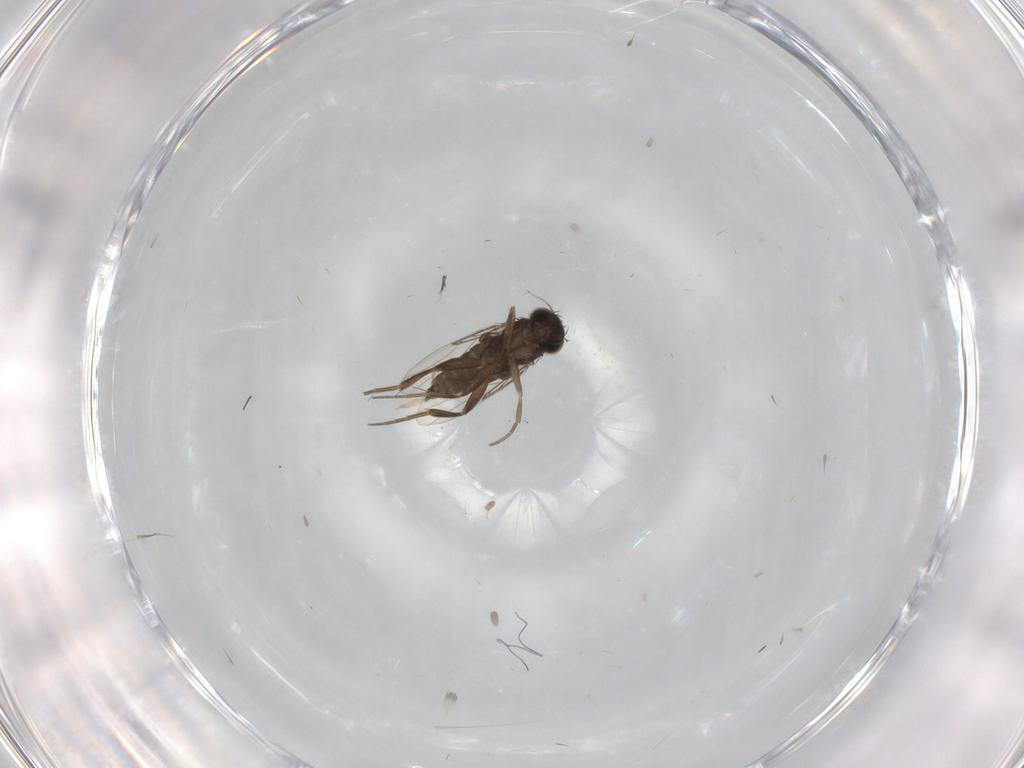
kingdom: Animalia
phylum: Arthropoda
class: Insecta
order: Diptera
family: Phoridae
